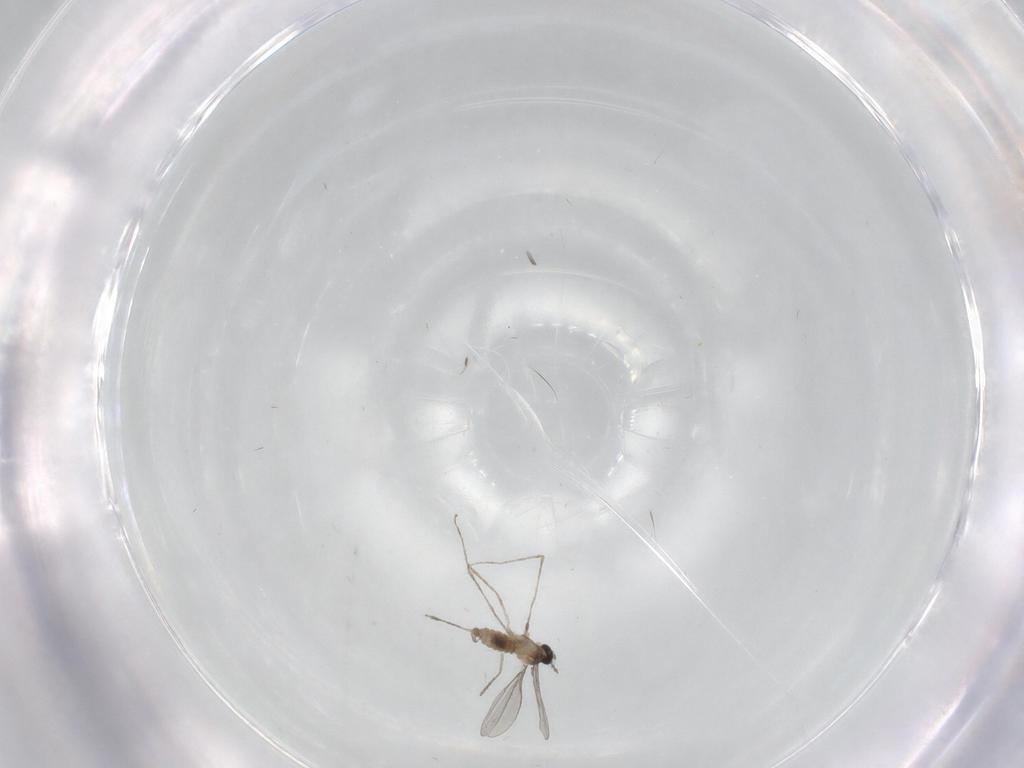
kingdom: Animalia
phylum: Arthropoda
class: Insecta
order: Diptera
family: Cecidomyiidae
